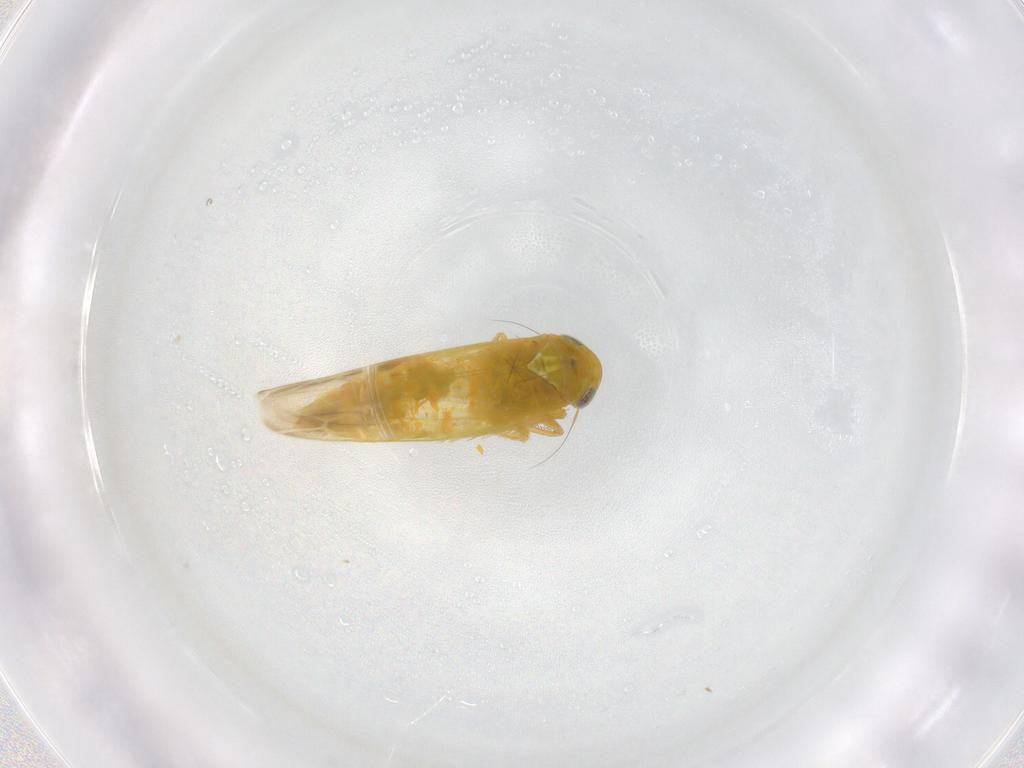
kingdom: Animalia
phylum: Arthropoda
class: Insecta
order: Hemiptera
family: Cicadellidae
